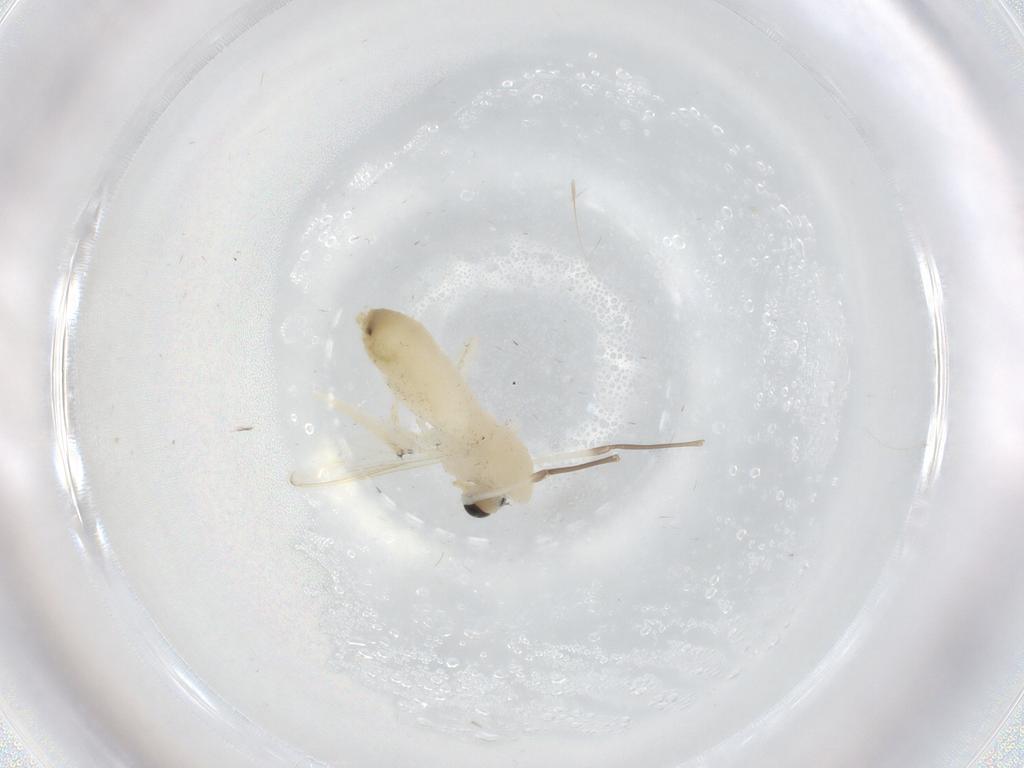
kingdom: Animalia
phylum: Arthropoda
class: Insecta
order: Diptera
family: Chironomidae
